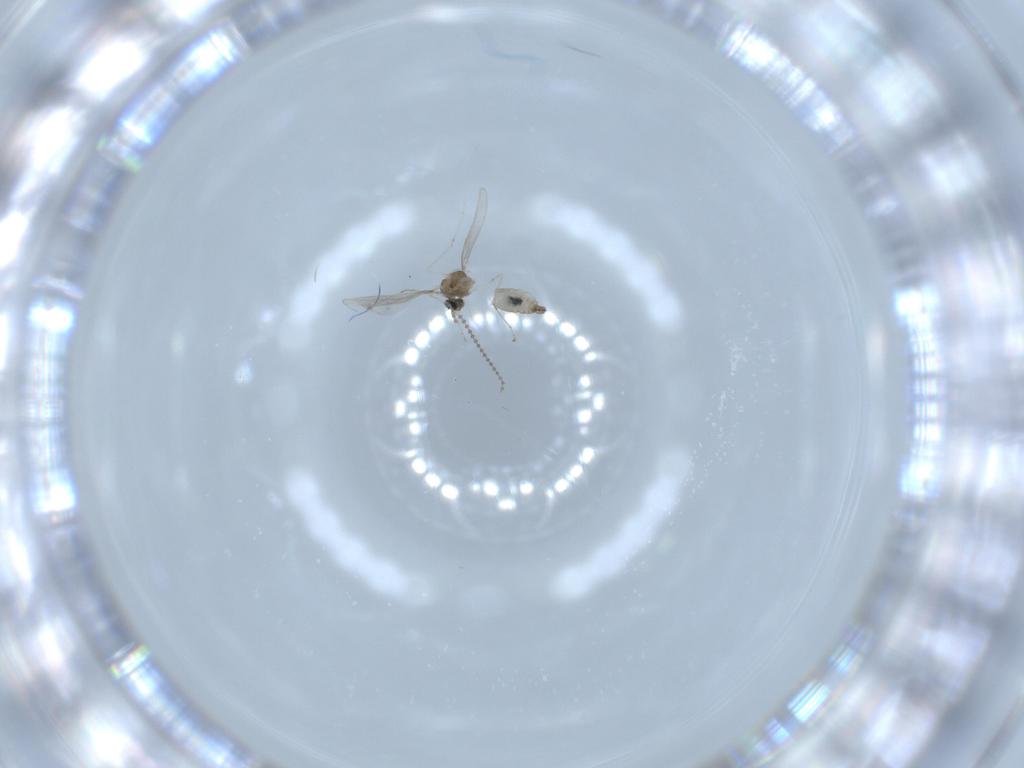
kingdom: Animalia
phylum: Arthropoda
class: Insecta
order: Diptera
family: Cecidomyiidae
